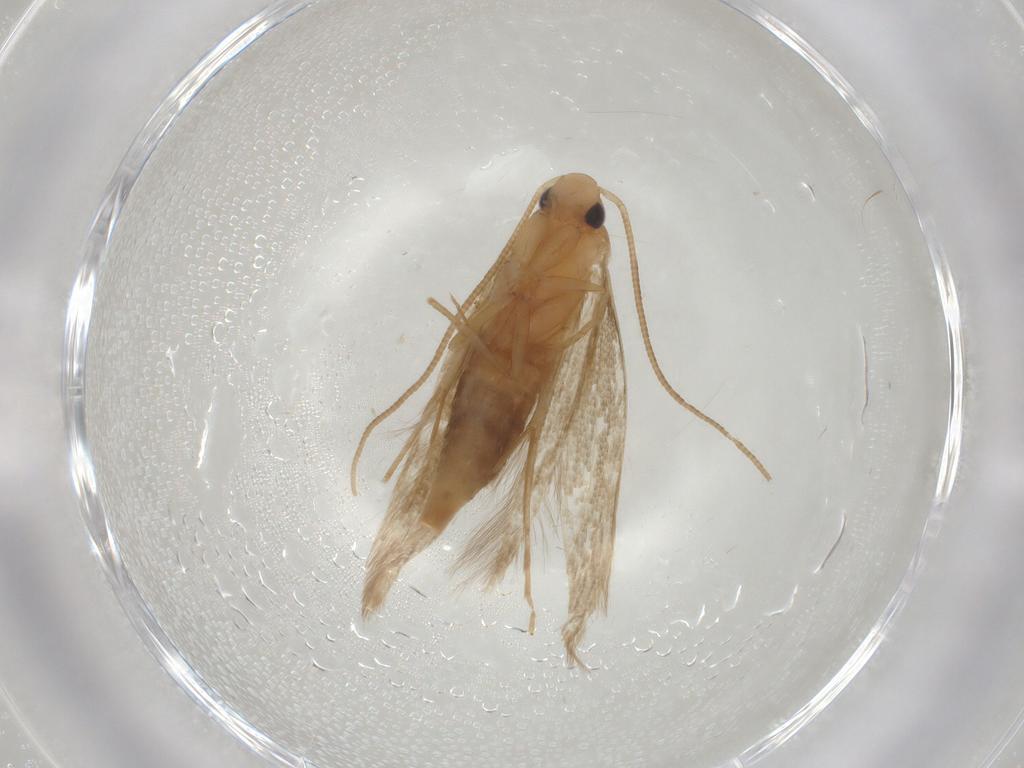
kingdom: Animalia
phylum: Arthropoda
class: Insecta
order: Lepidoptera
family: Tineidae
